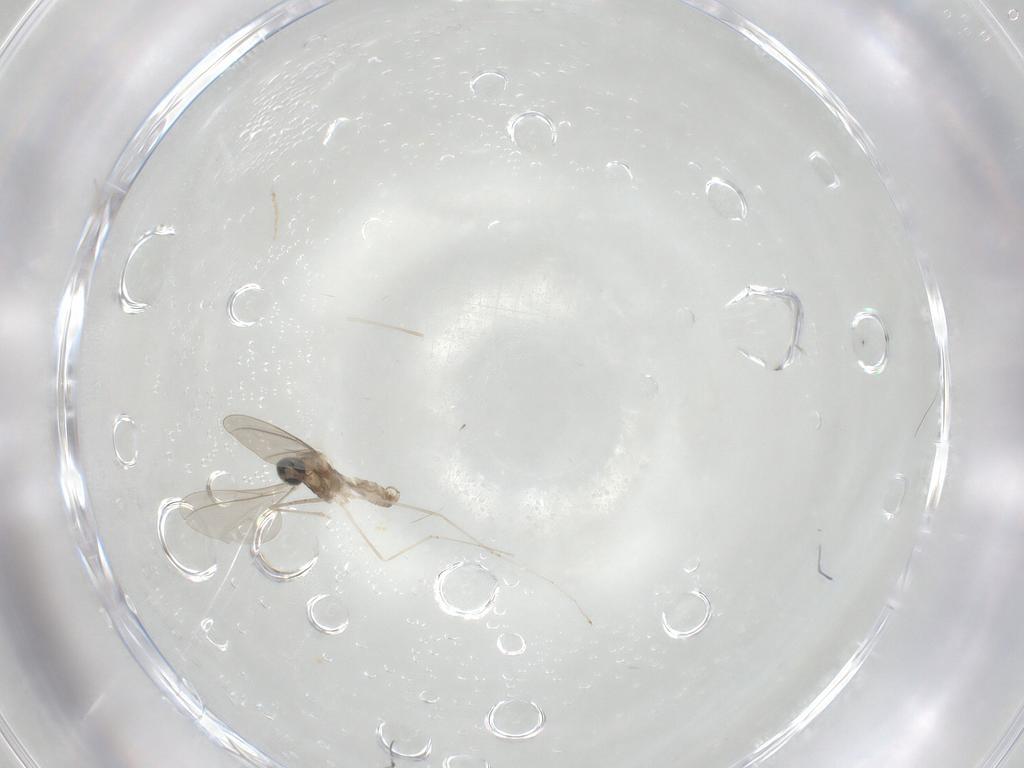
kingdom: Animalia
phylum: Arthropoda
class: Insecta
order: Diptera
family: Cecidomyiidae
